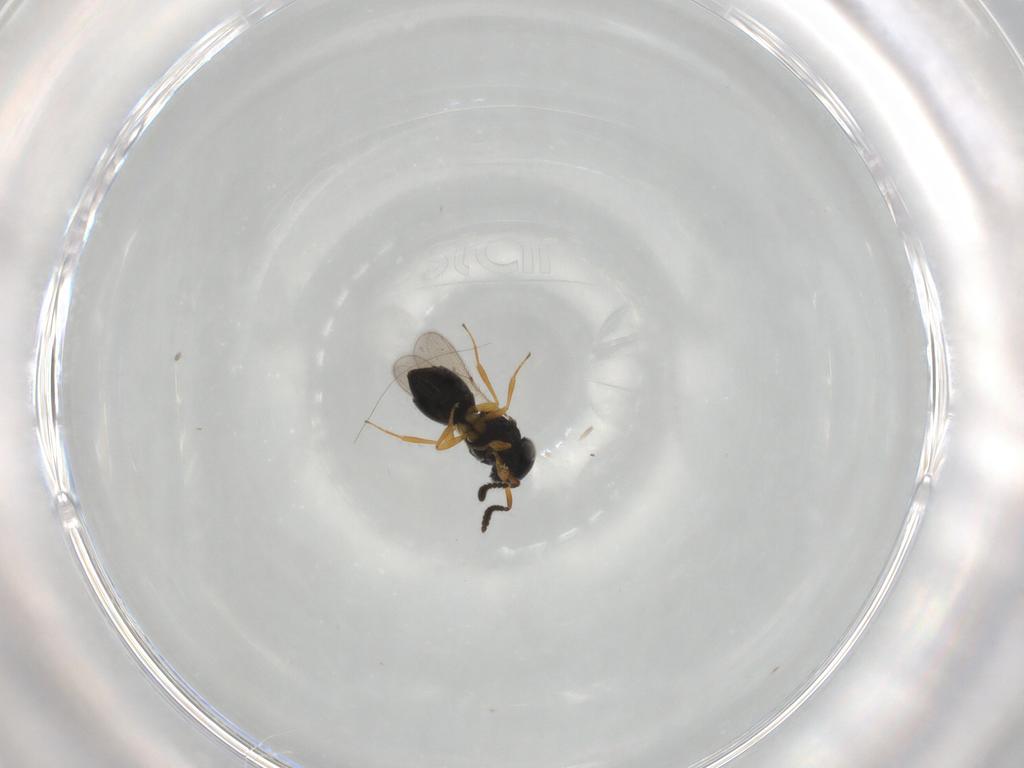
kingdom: Animalia
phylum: Arthropoda
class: Insecta
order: Hymenoptera
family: Scelionidae
